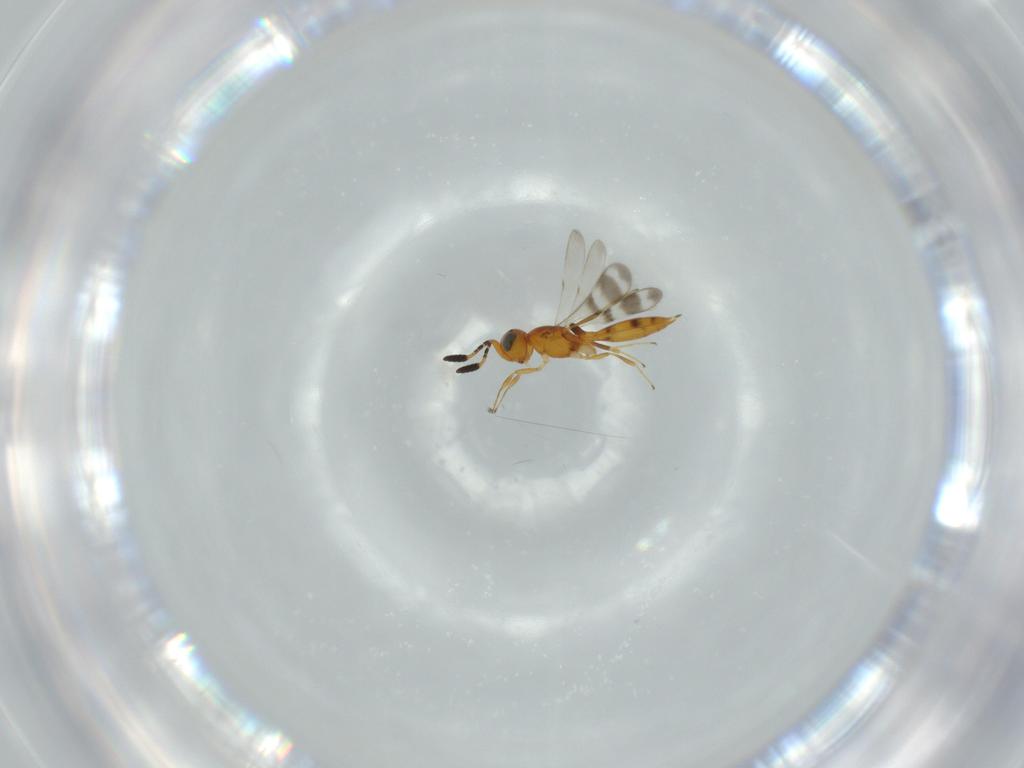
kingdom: Animalia
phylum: Arthropoda
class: Insecta
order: Hymenoptera
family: Scelionidae
